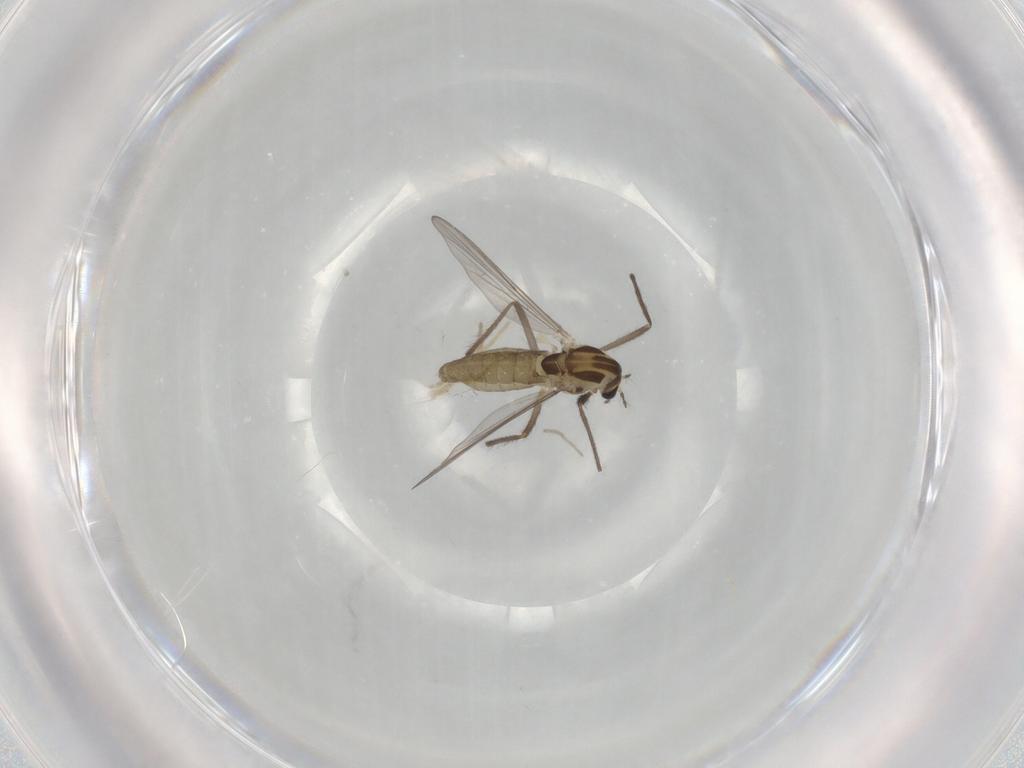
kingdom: Animalia
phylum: Arthropoda
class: Insecta
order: Diptera
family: Chironomidae
